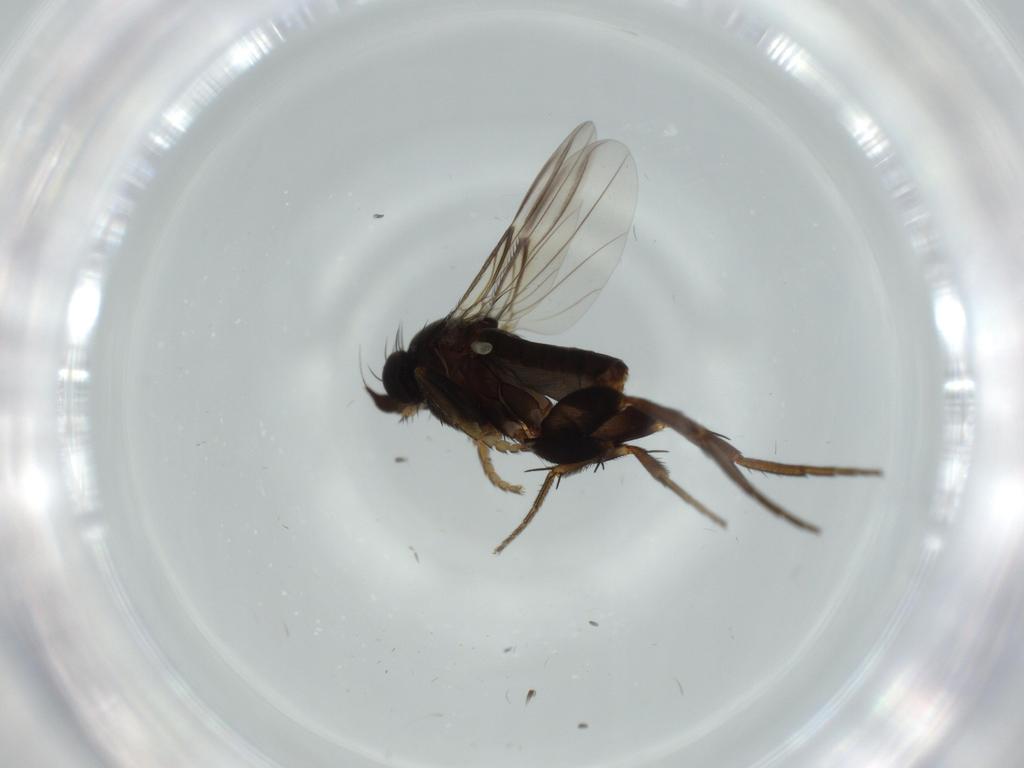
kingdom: Animalia
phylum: Arthropoda
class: Insecta
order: Diptera
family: Phoridae
